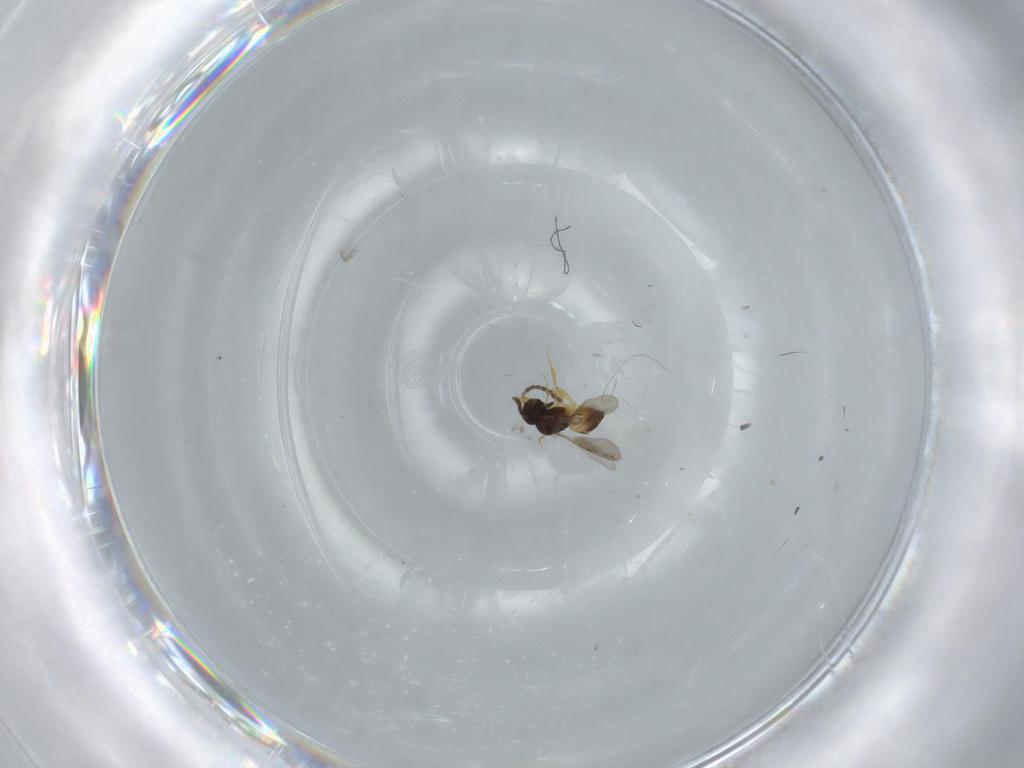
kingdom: Animalia
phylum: Arthropoda
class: Insecta
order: Hymenoptera
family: Ceraphronidae
